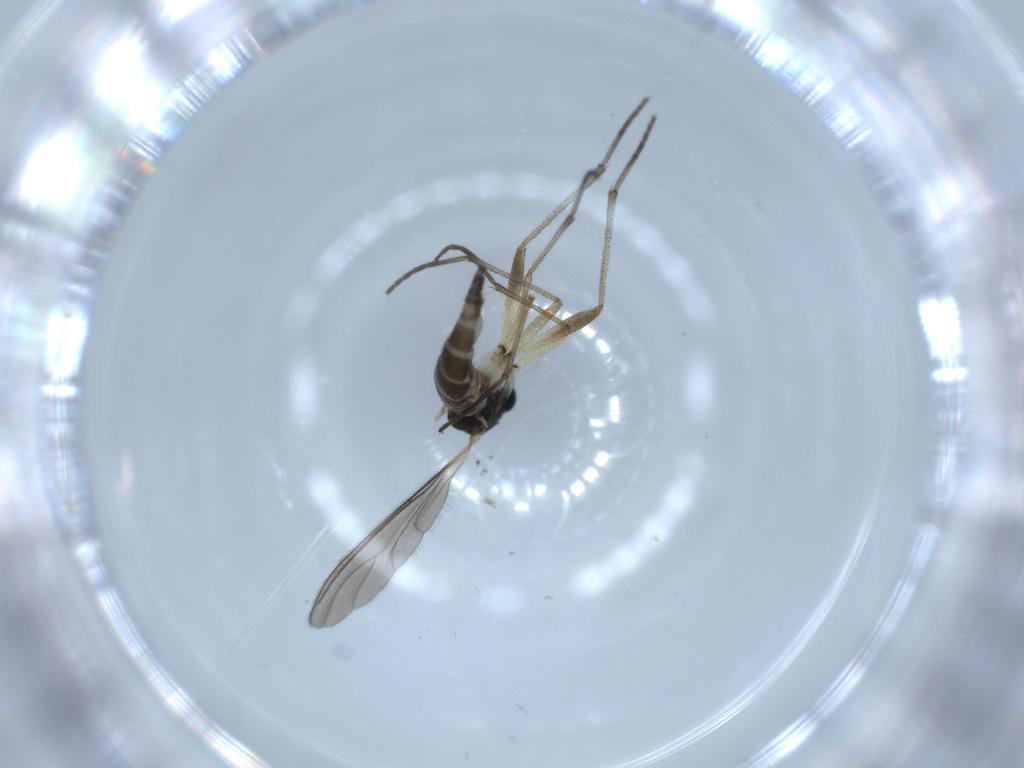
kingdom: Animalia
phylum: Arthropoda
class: Insecta
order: Diptera
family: Sciaridae
